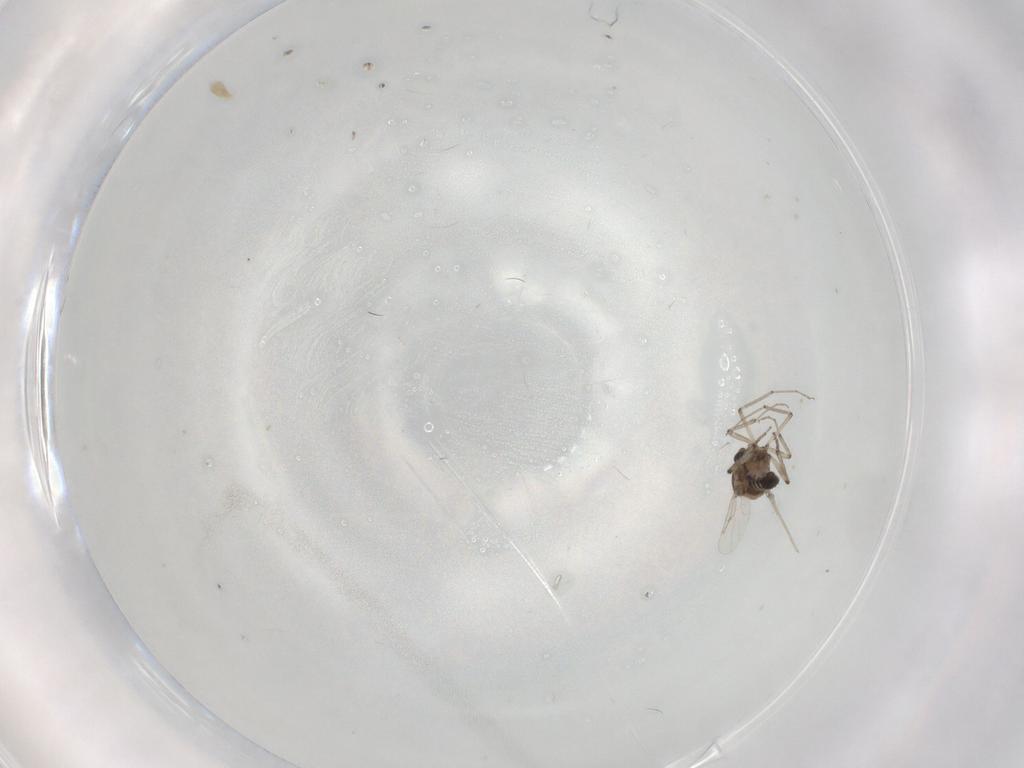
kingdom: Animalia
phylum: Arthropoda
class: Insecta
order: Diptera
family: Ceratopogonidae
